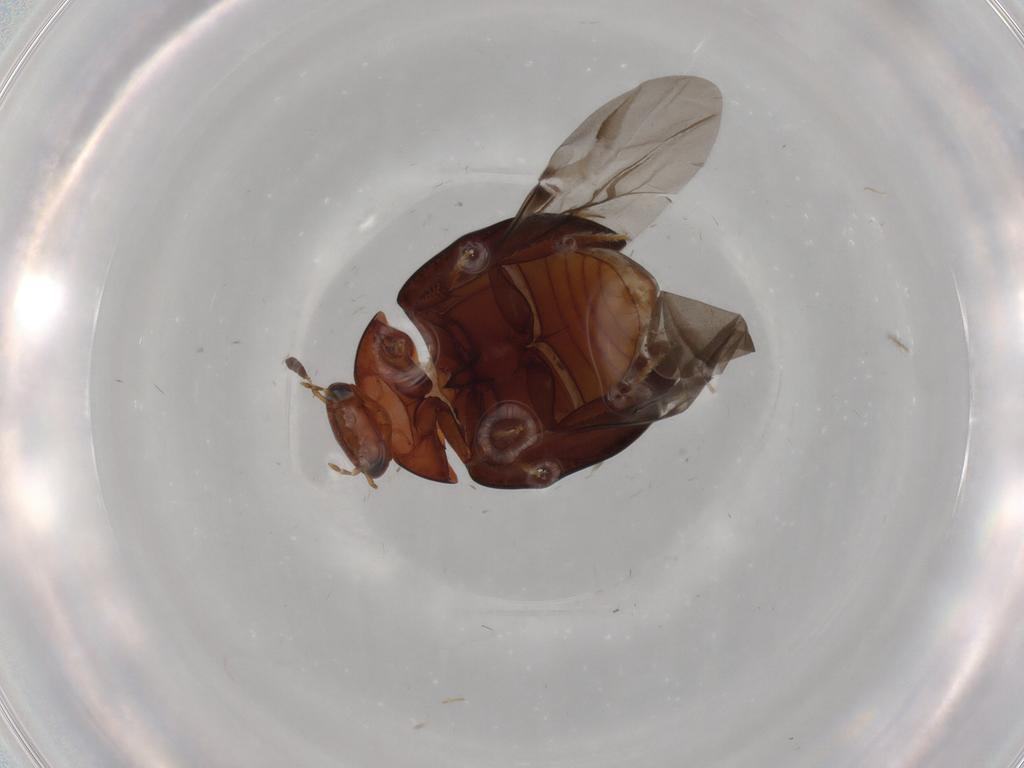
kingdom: Animalia
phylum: Arthropoda
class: Insecta
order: Coleoptera
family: Hydrophilidae
